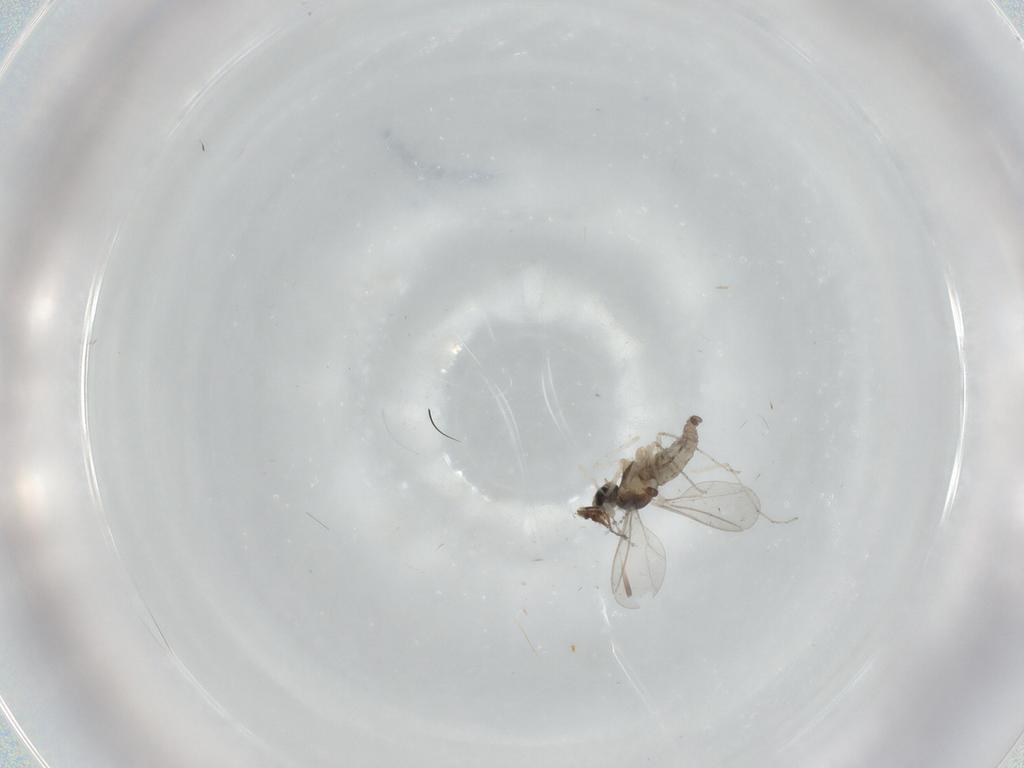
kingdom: Animalia
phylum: Arthropoda
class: Insecta
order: Diptera
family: Cecidomyiidae
